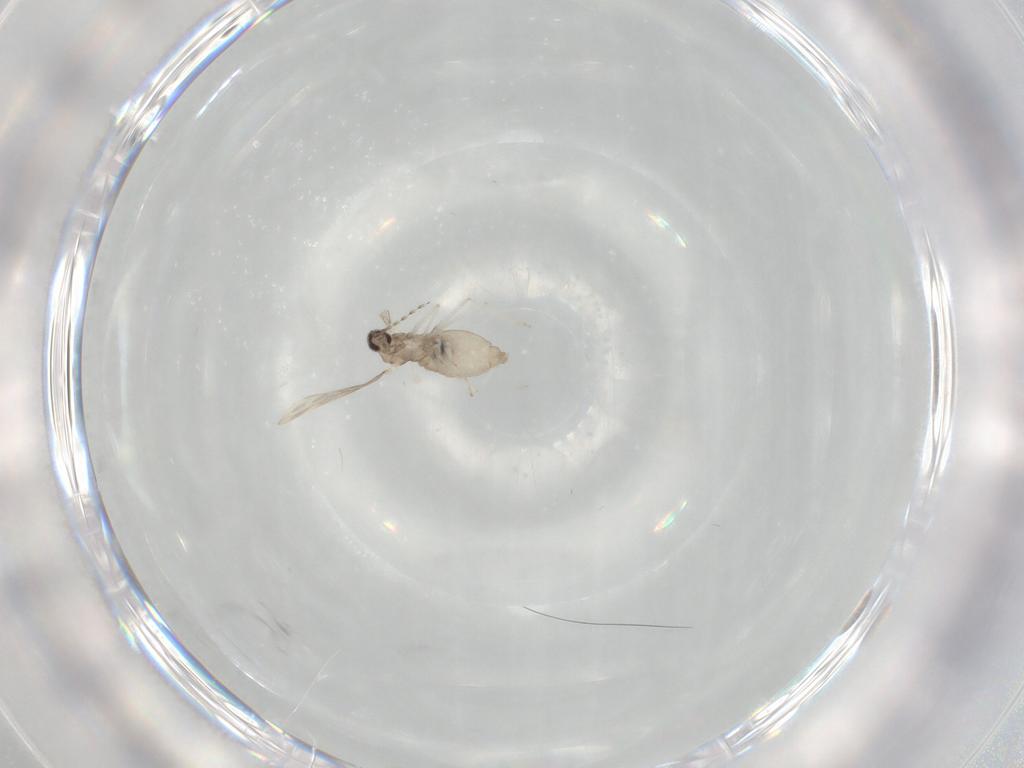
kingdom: Animalia
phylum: Arthropoda
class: Insecta
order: Diptera
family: Cecidomyiidae
